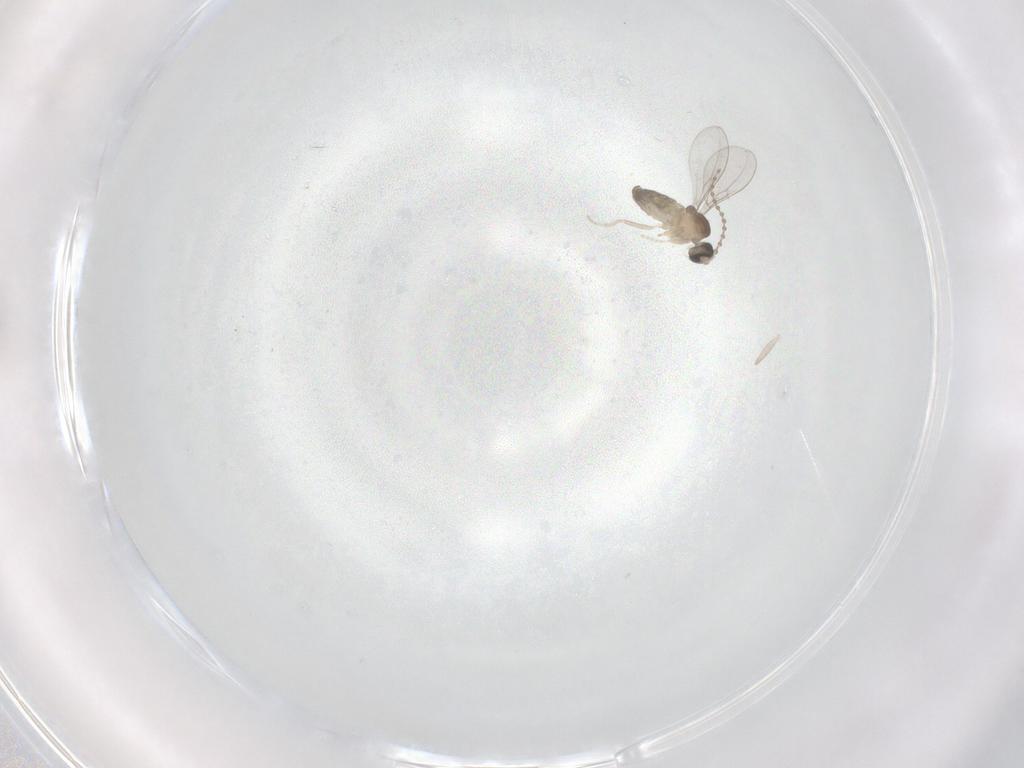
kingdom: Animalia
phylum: Arthropoda
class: Insecta
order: Diptera
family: Cecidomyiidae
